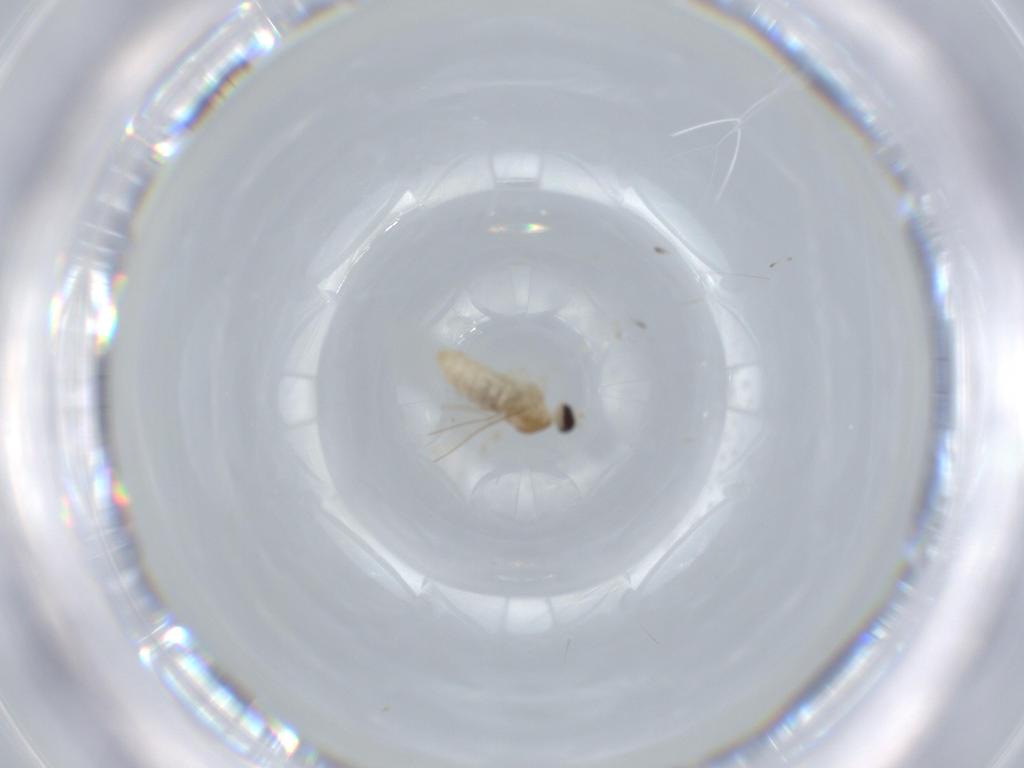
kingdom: Animalia
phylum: Arthropoda
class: Insecta
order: Diptera
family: Cecidomyiidae
